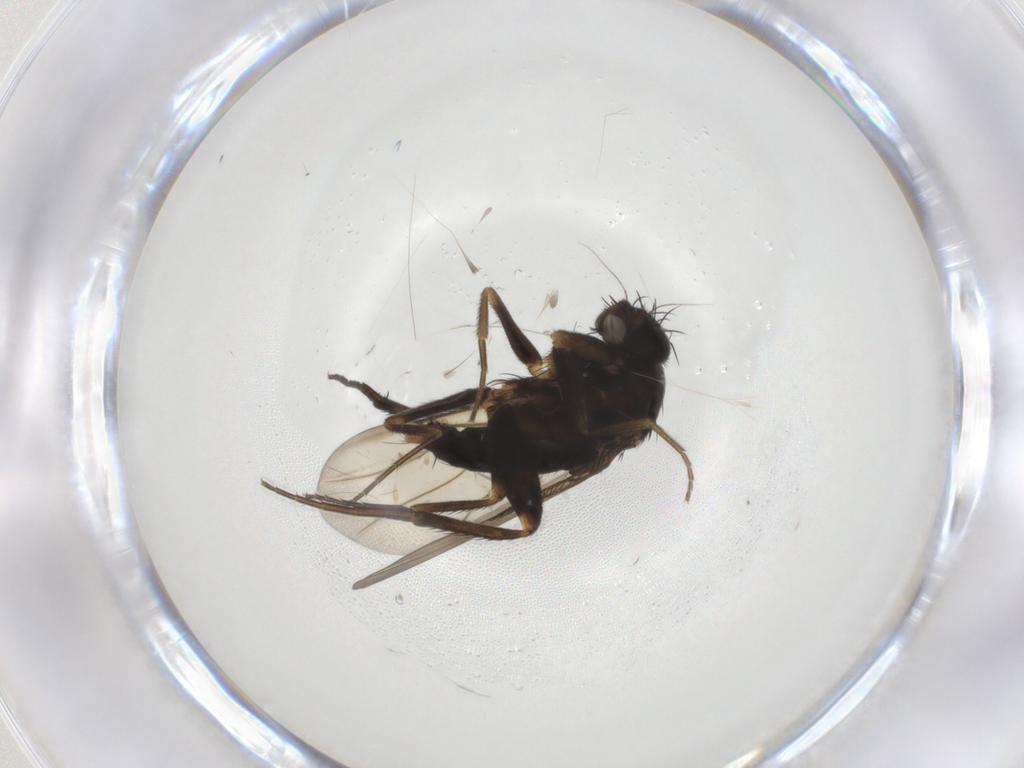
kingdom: Animalia
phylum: Arthropoda
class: Insecta
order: Diptera
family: Phoridae
